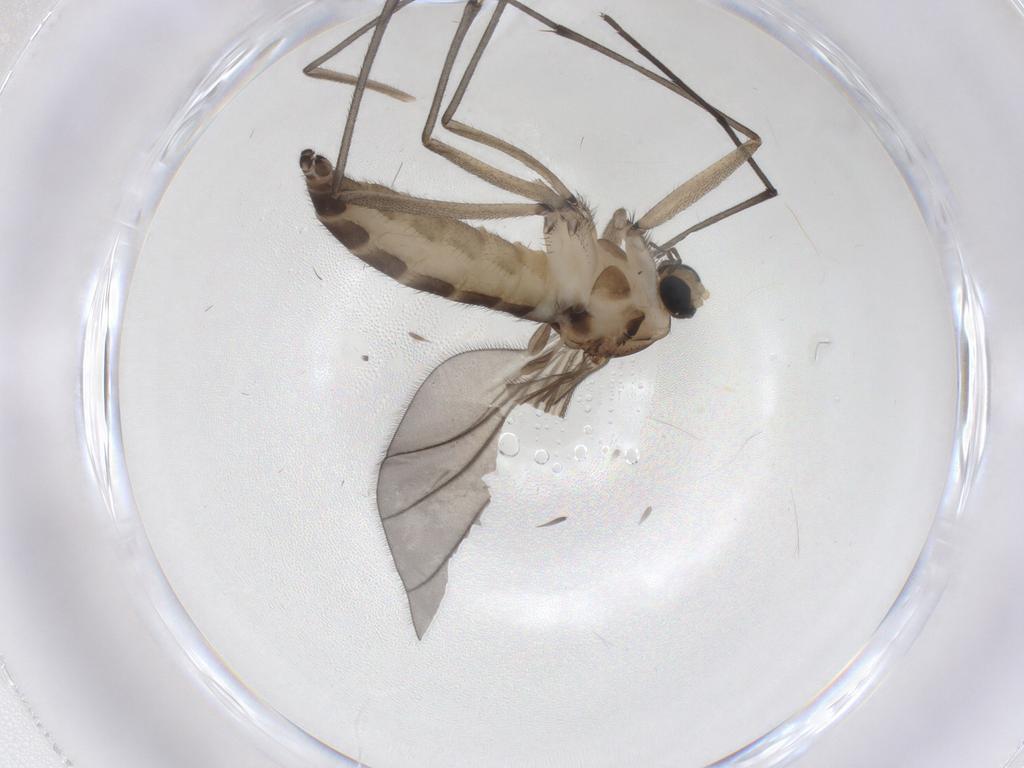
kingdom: Animalia
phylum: Arthropoda
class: Insecta
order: Diptera
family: Sciaridae
